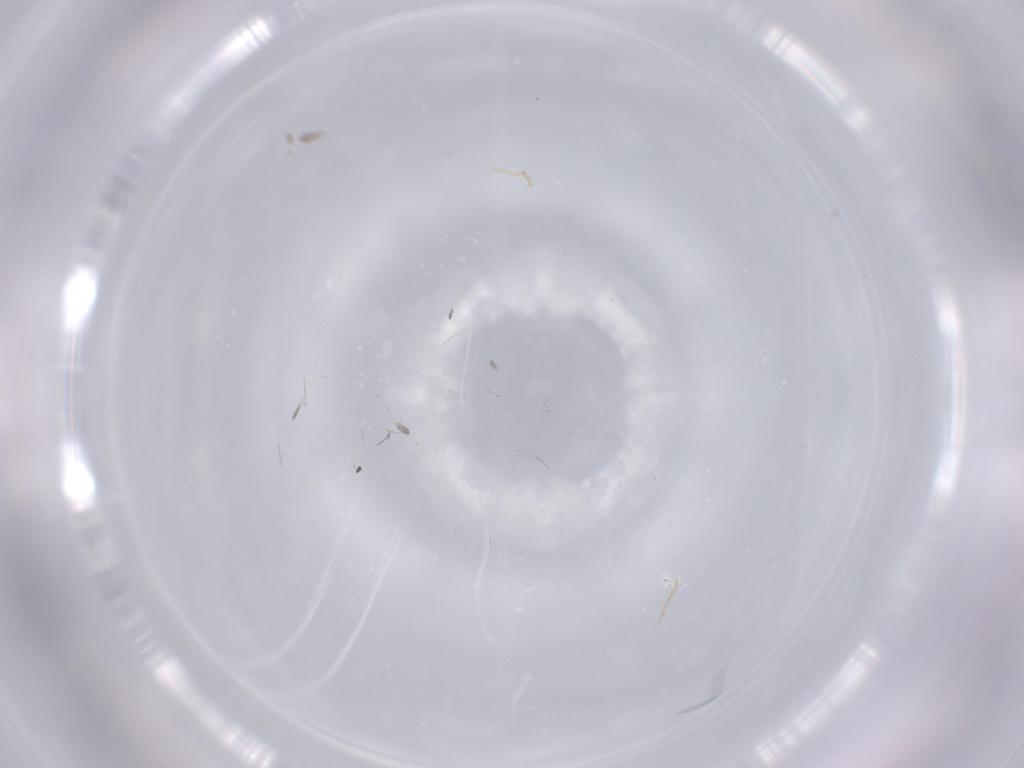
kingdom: Animalia
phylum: Arthropoda
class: Insecta
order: Hemiptera
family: Aleyrodidae
